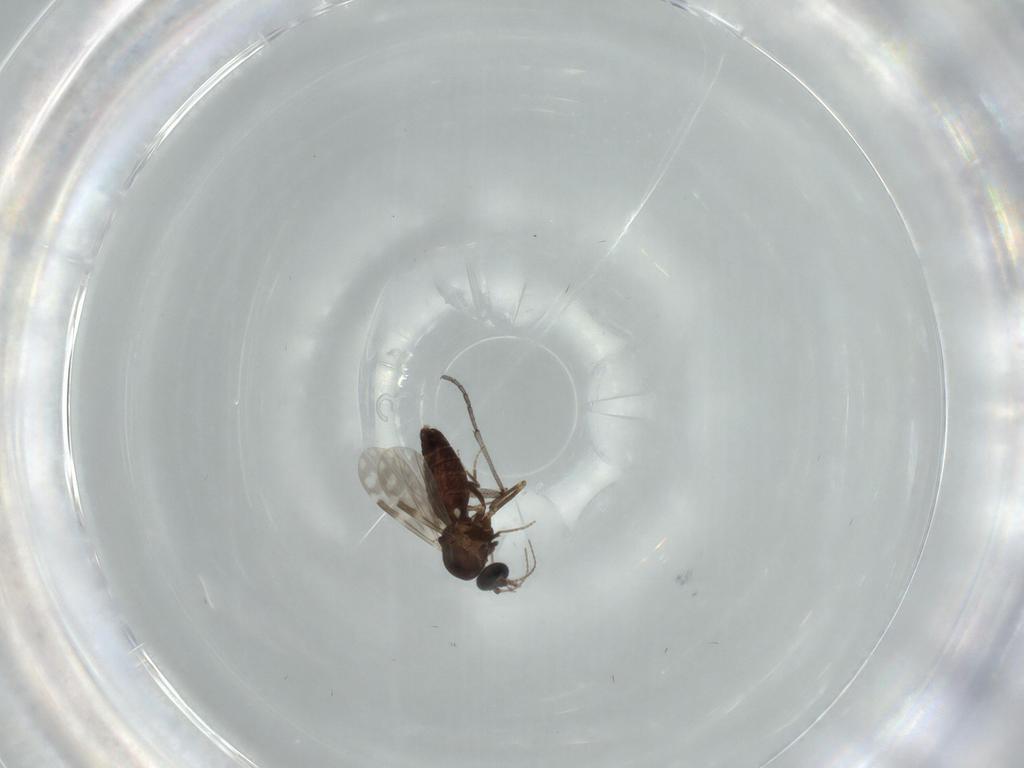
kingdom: Animalia
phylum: Arthropoda
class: Insecta
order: Diptera
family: Ceratopogonidae
